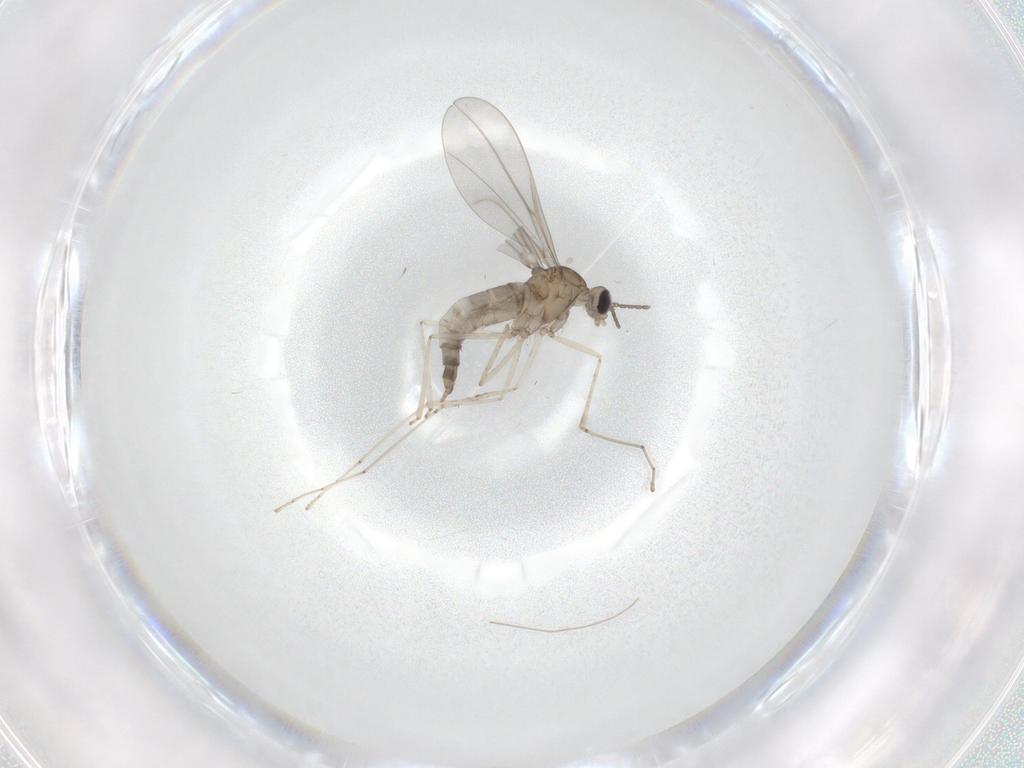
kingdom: Animalia
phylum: Arthropoda
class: Insecta
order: Diptera
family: Cecidomyiidae
